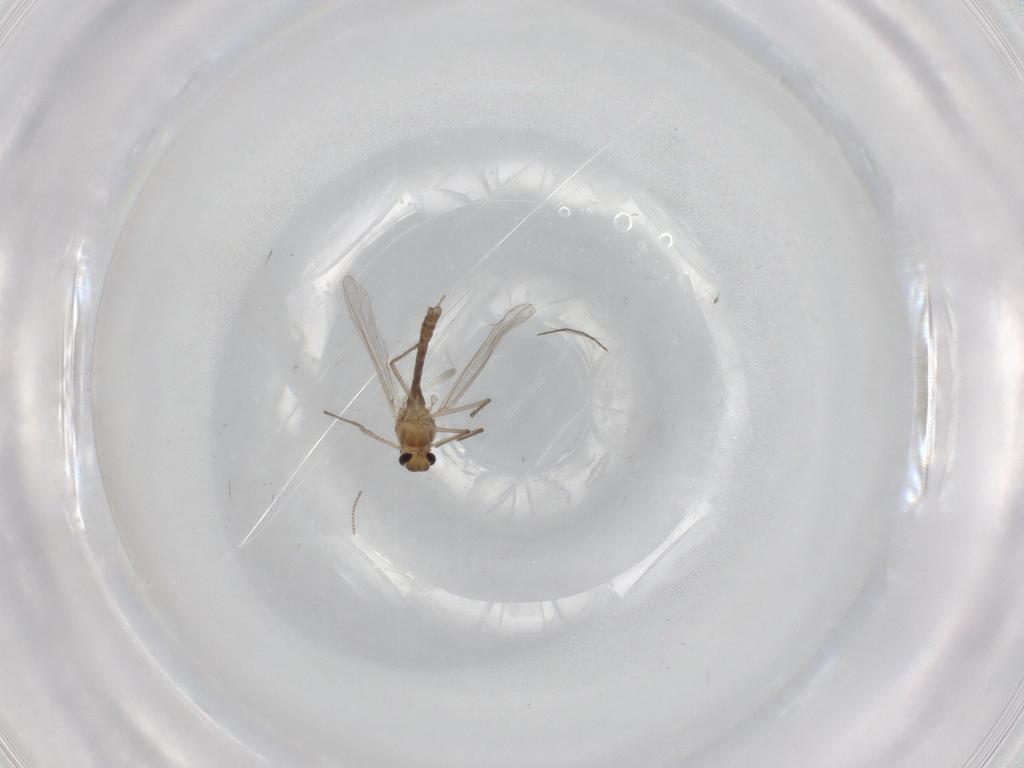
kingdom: Animalia
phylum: Arthropoda
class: Insecta
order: Diptera
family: Chironomidae
